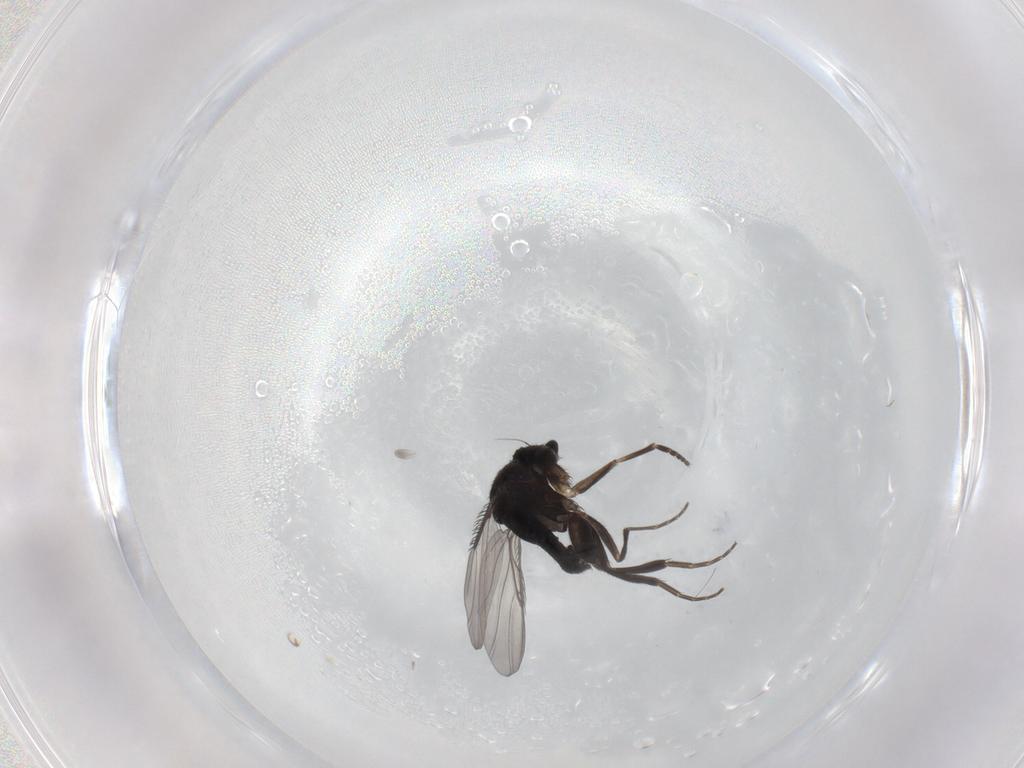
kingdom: Animalia
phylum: Arthropoda
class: Insecta
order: Diptera
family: Phoridae
